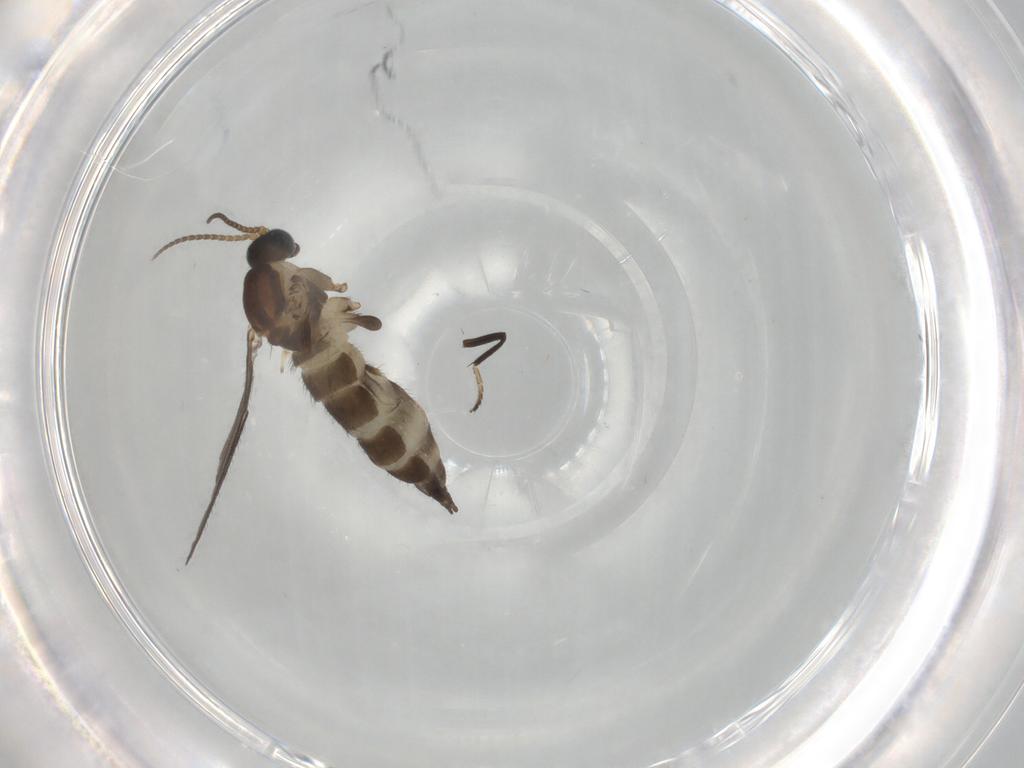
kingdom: Animalia
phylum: Arthropoda
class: Insecta
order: Diptera
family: Sciaridae
